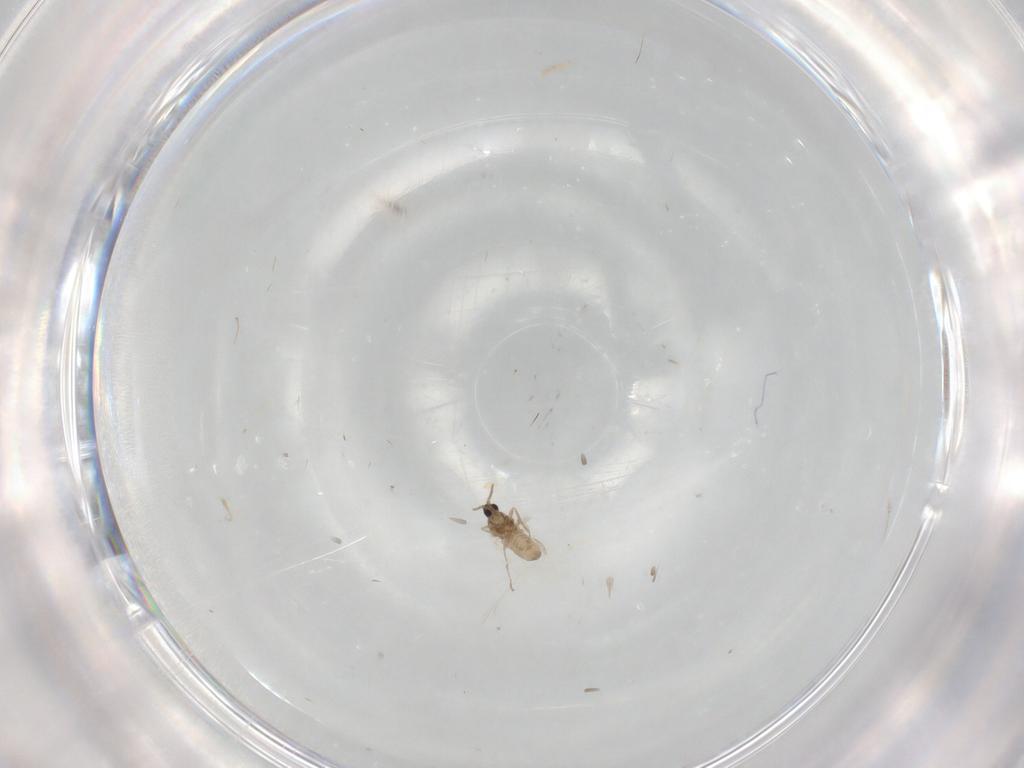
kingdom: Animalia
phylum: Arthropoda
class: Insecta
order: Diptera
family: Cecidomyiidae
